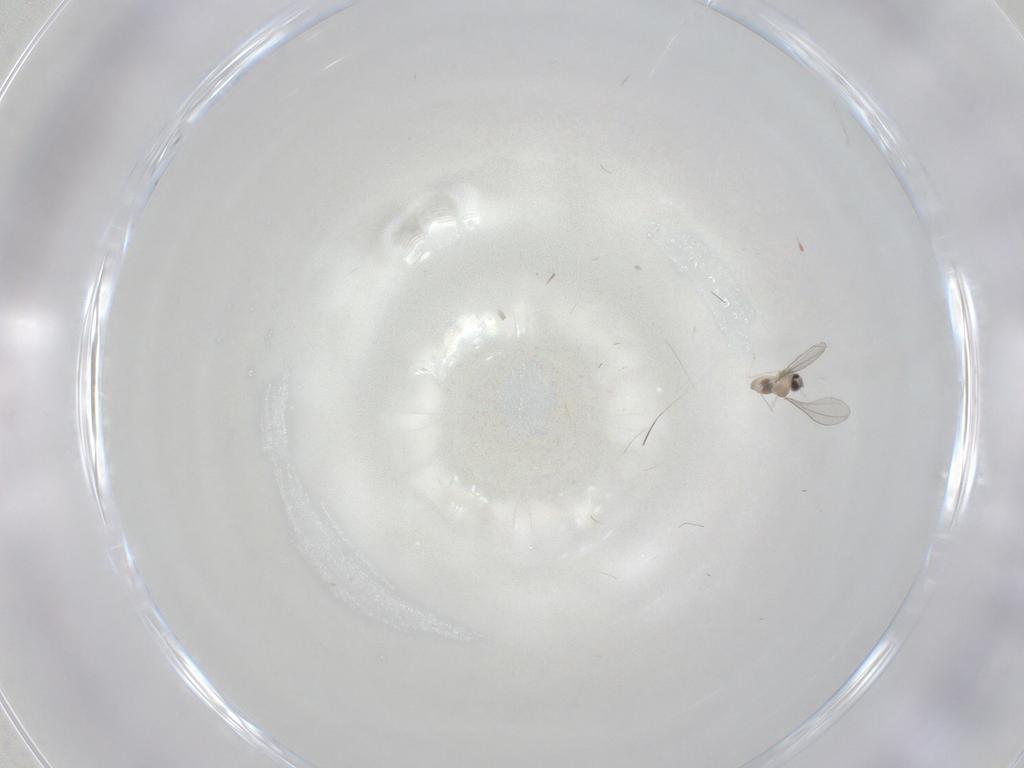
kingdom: Animalia
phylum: Arthropoda
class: Insecta
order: Diptera
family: Cecidomyiidae
